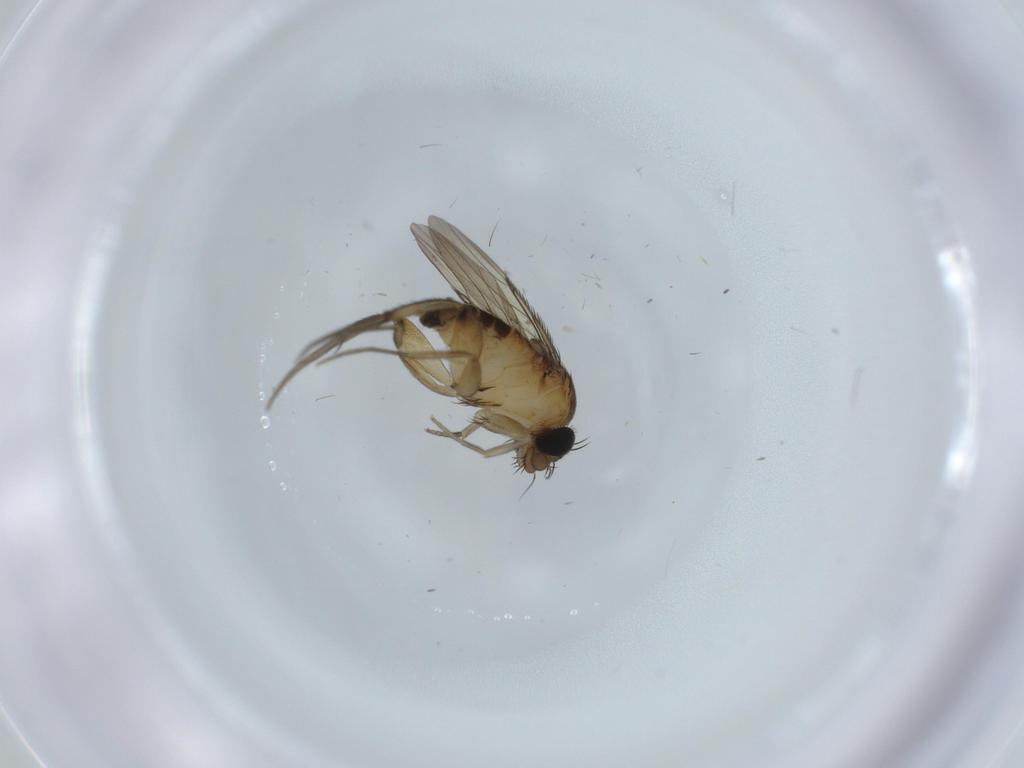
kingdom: Animalia
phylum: Arthropoda
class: Insecta
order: Diptera
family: Phoridae
